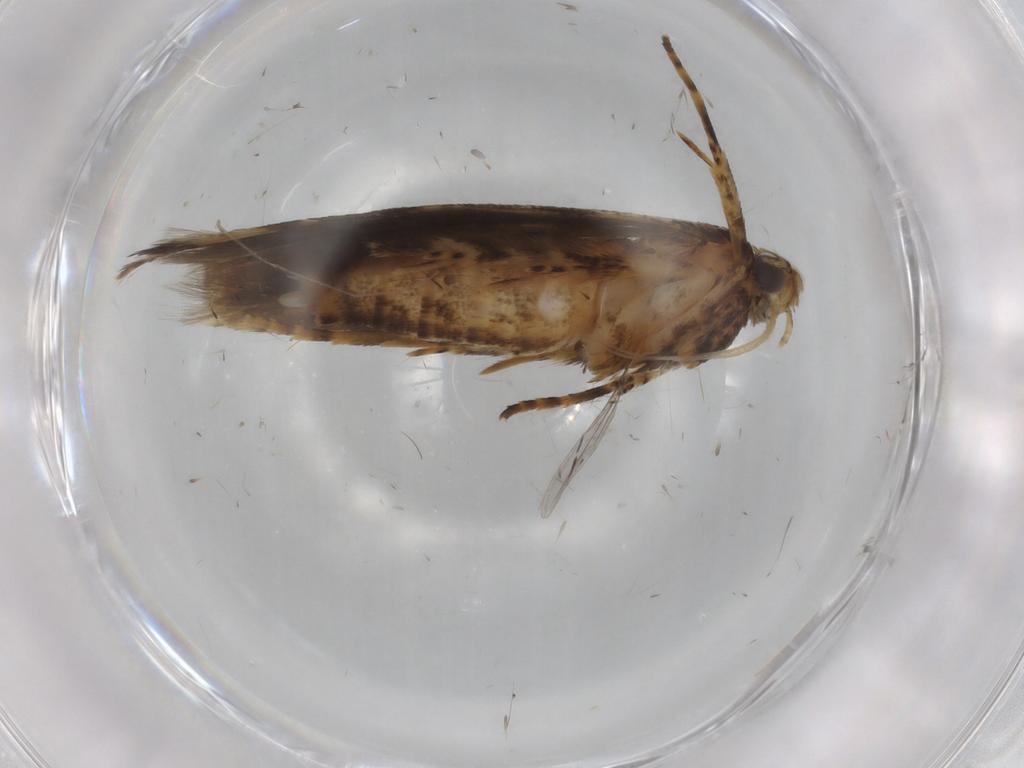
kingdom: Animalia
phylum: Arthropoda
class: Insecta
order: Lepidoptera
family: Gelechiidae
